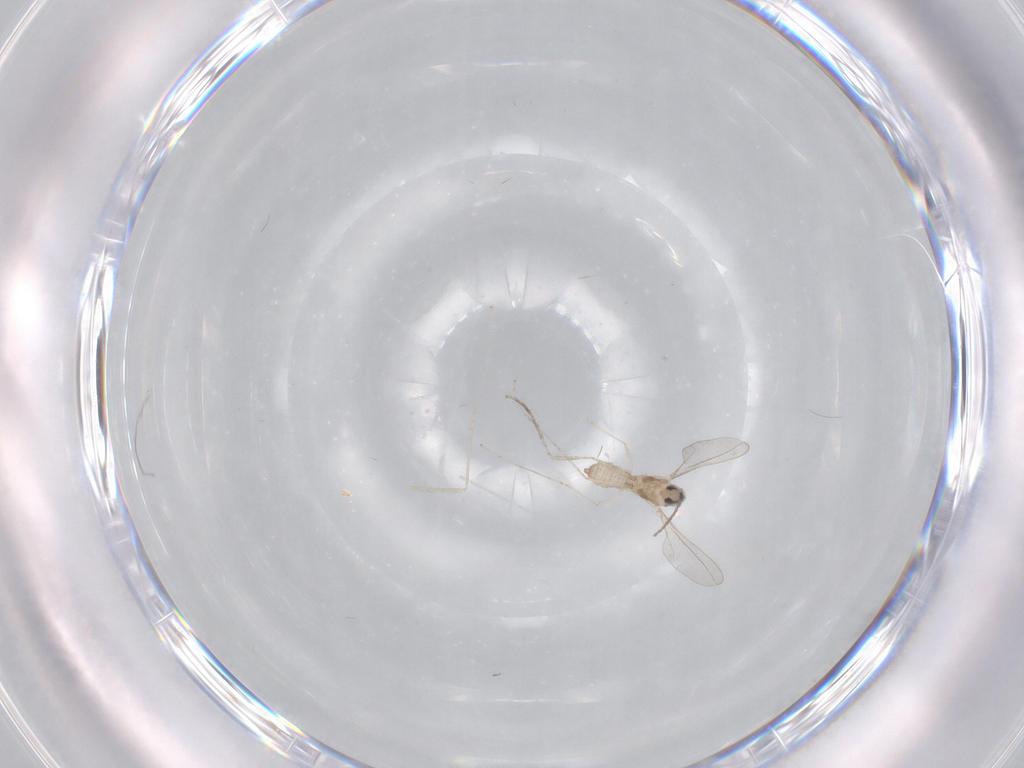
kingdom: Animalia
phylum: Arthropoda
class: Insecta
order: Diptera
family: Cecidomyiidae
